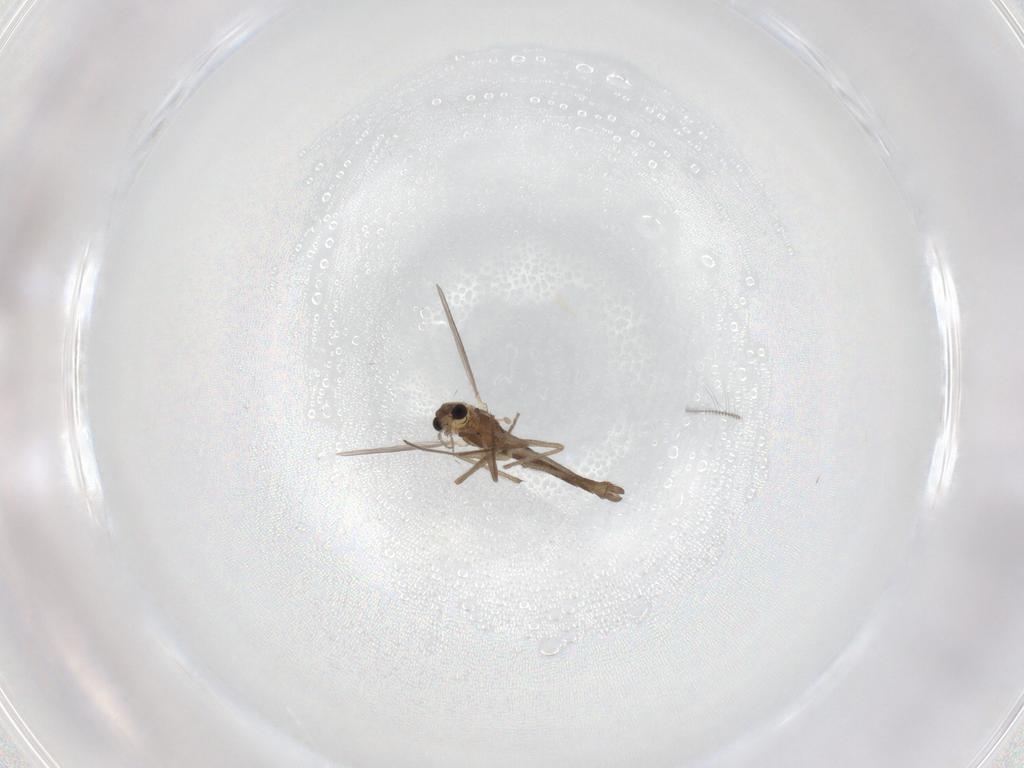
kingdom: Animalia
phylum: Arthropoda
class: Insecta
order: Diptera
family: Chironomidae
